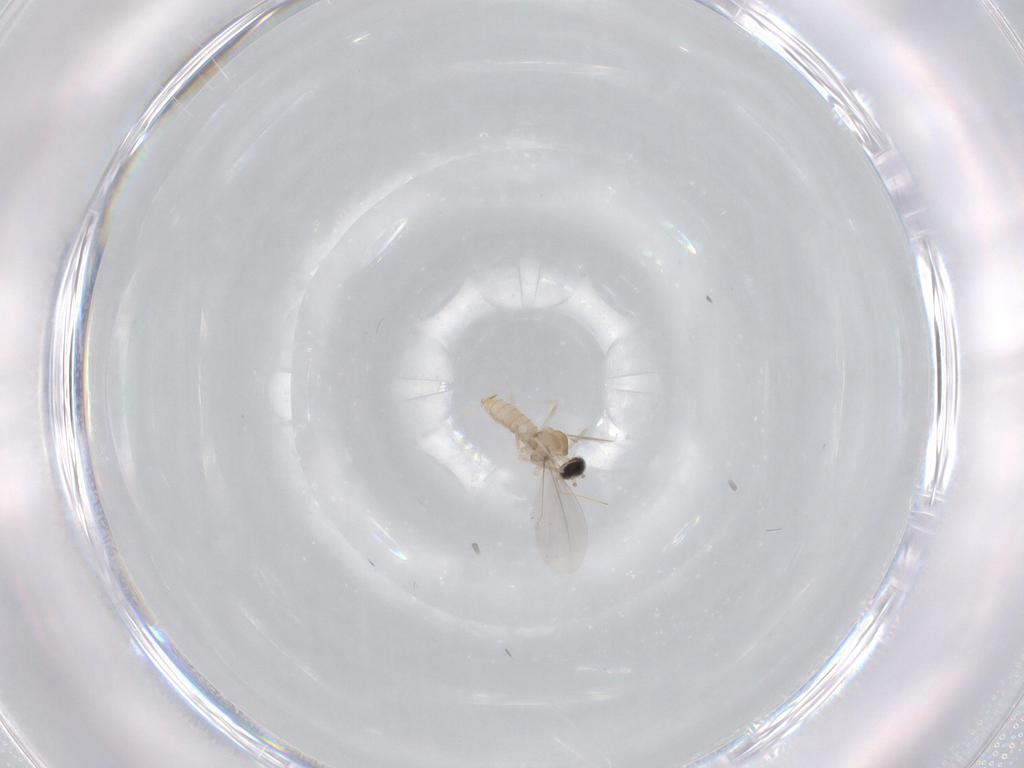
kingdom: Animalia
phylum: Arthropoda
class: Insecta
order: Diptera
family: Cecidomyiidae
